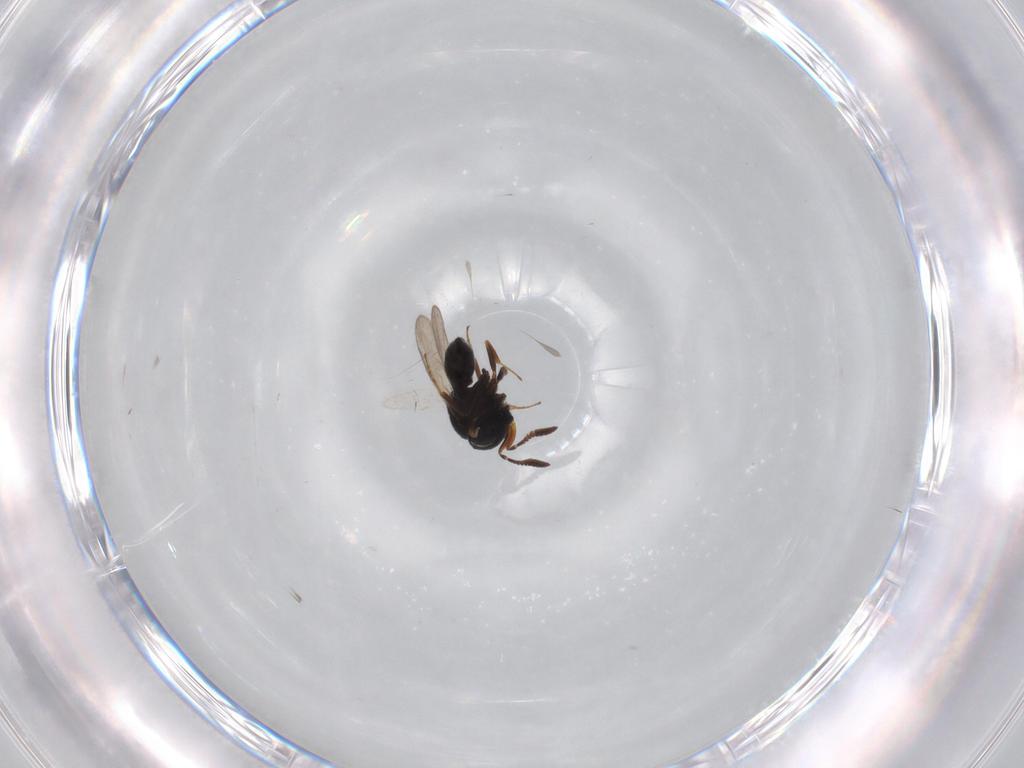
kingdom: Animalia
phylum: Arthropoda
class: Insecta
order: Hymenoptera
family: Scelionidae
